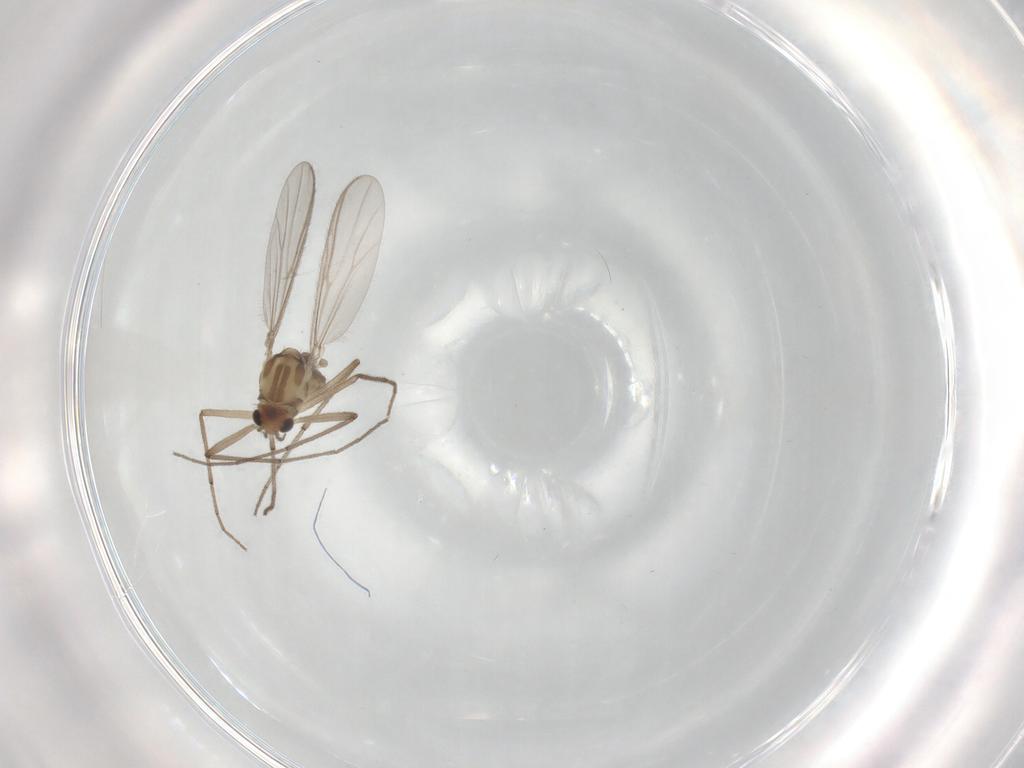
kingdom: Animalia
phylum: Arthropoda
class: Insecta
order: Diptera
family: Chironomidae
